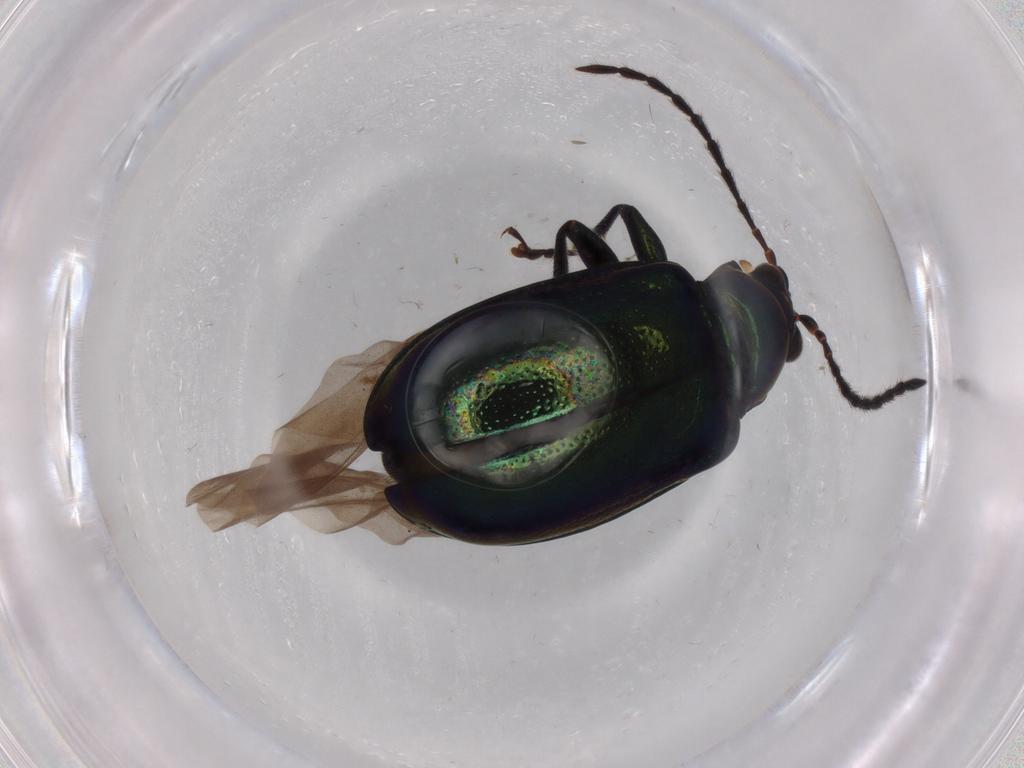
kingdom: Animalia
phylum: Arthropoda
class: Insecta
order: Coleoptera
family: Chrysomelidae
